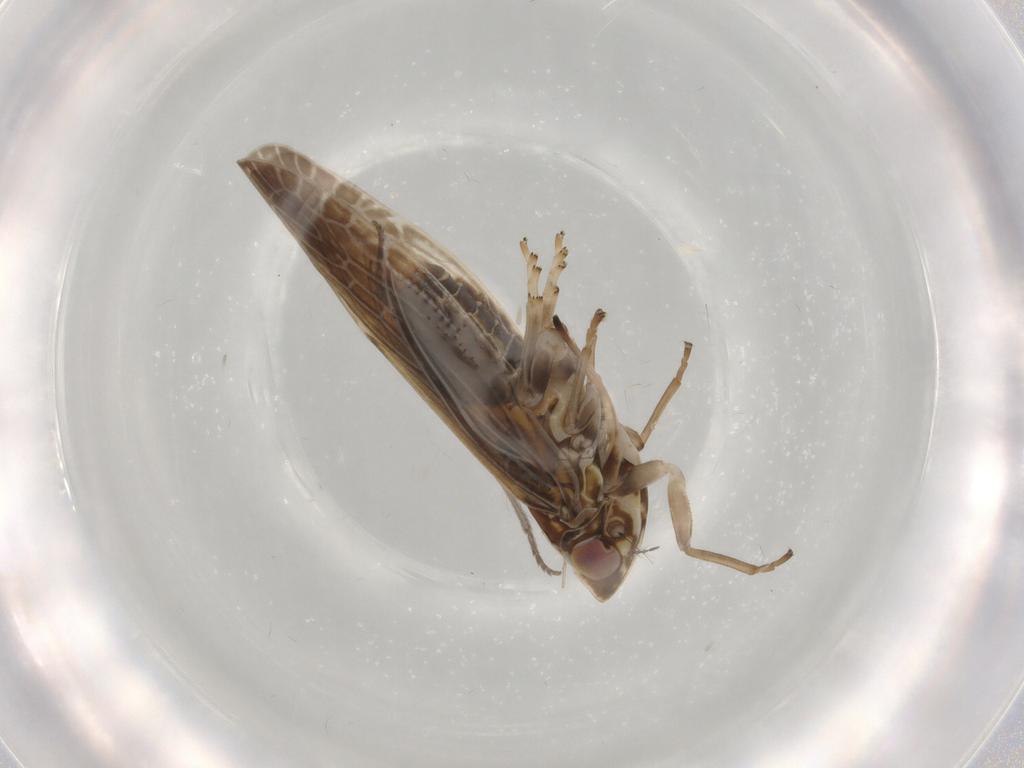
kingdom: Animalia
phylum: Arthropoda
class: Insecta
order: Hemiptera
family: Achilidae
